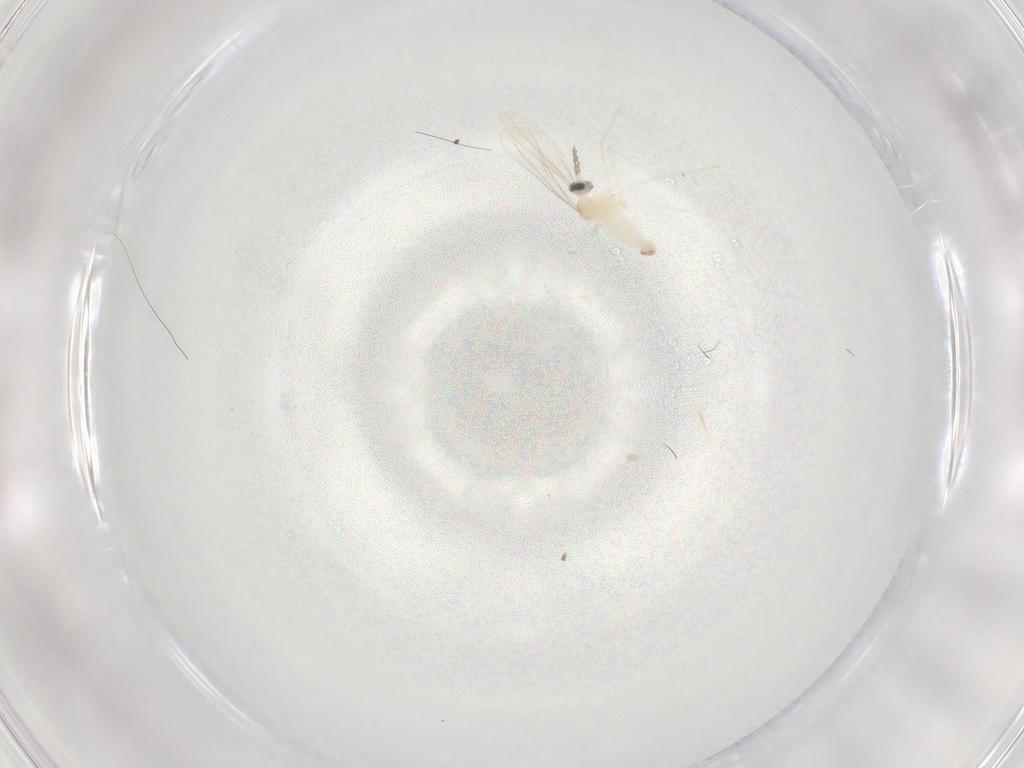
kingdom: Animalia
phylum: Arthropoda
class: Insecta
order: Diptera
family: Cecidomyiidae
